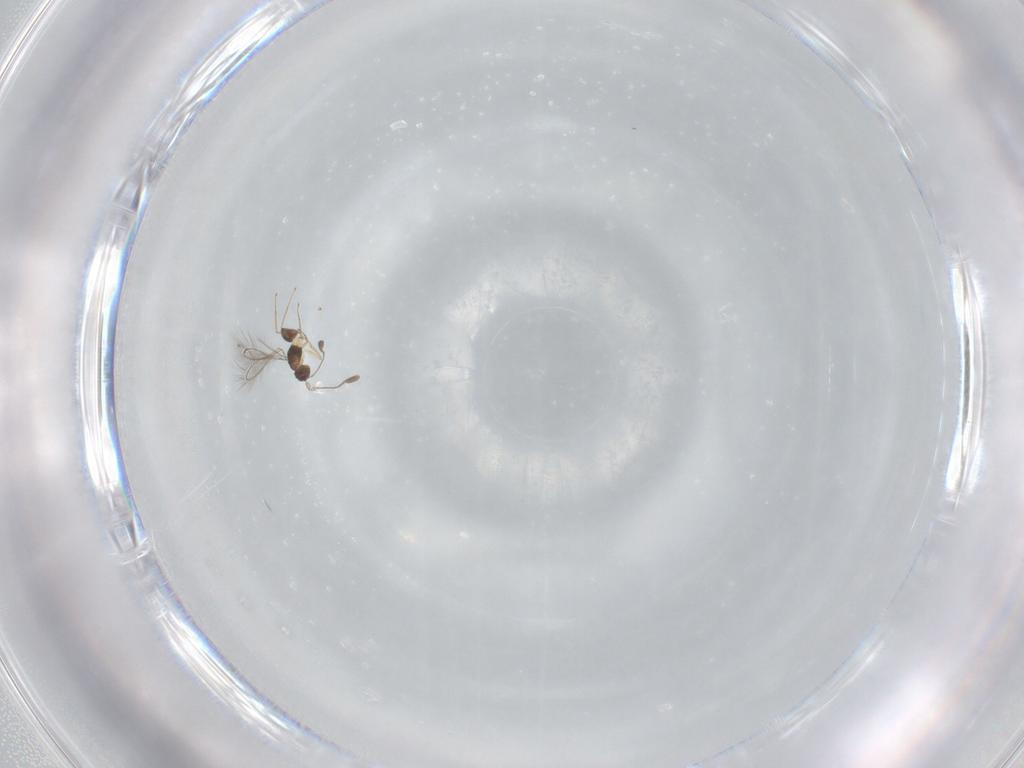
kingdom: Animalia
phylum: Arthropoda
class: Insecta
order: Hymenoptera
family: Mymaridae
